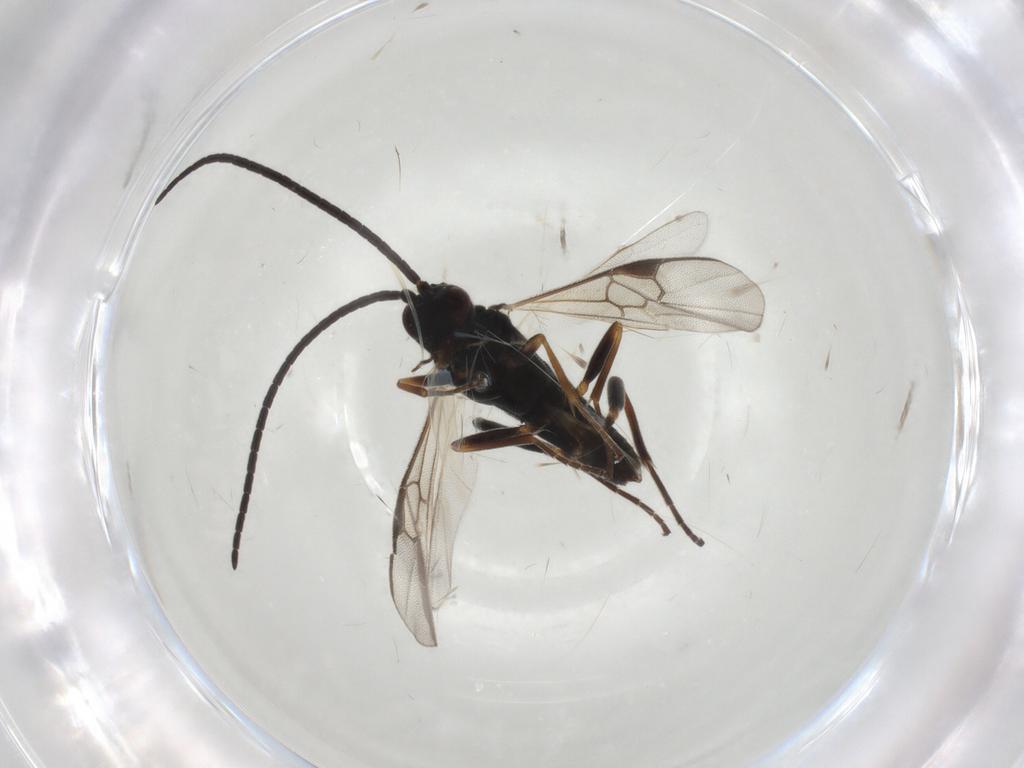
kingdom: Animalia
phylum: Arthropoda
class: Insecta
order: Hymenoptera
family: Braconidae
